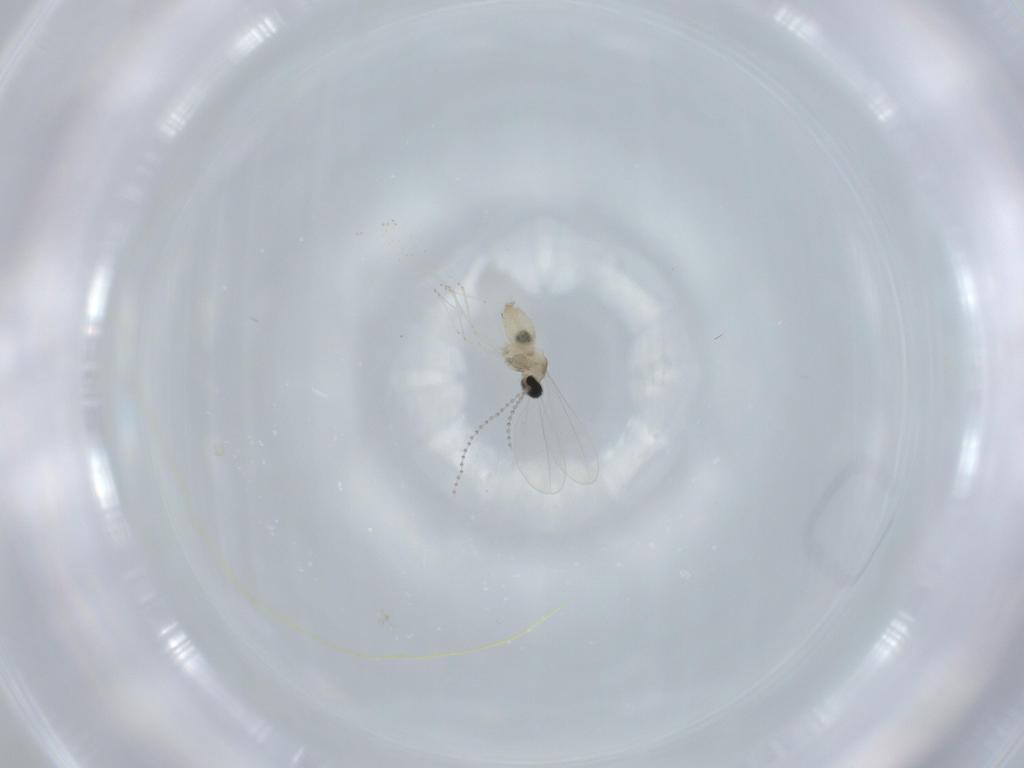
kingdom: Animalia
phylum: Arthropoda
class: Insecta
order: Diptera
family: Cecidomyiidae
